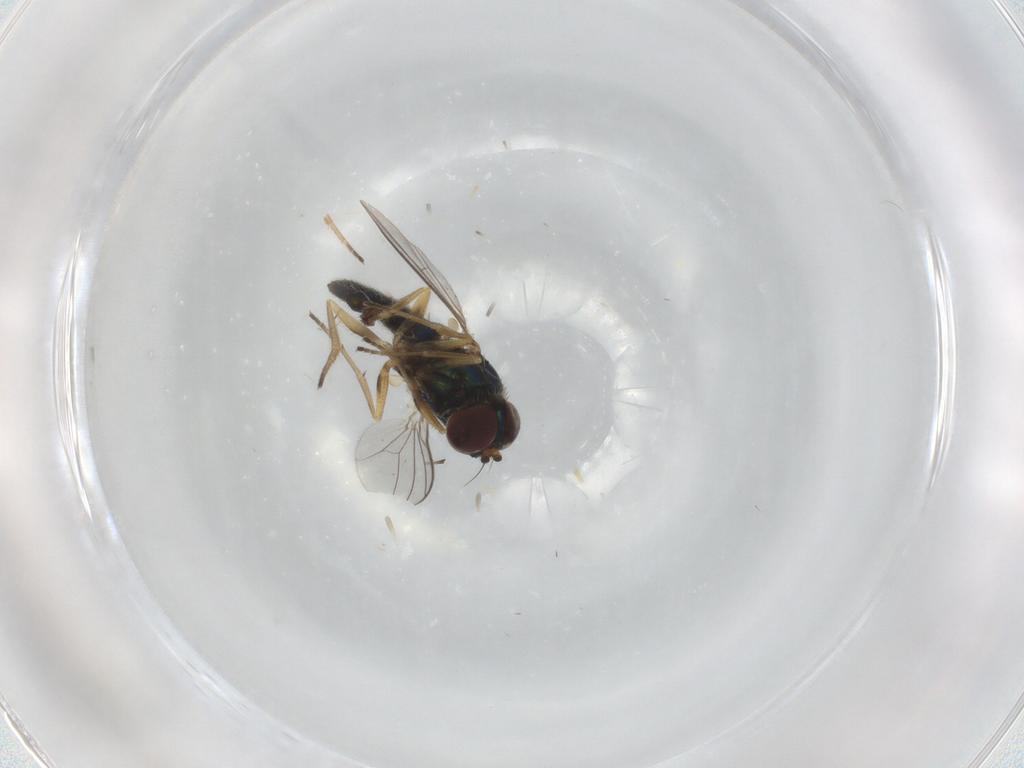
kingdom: Animalia
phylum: Arthropoda
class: Insecta
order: Diptera
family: Dolichopodidae
